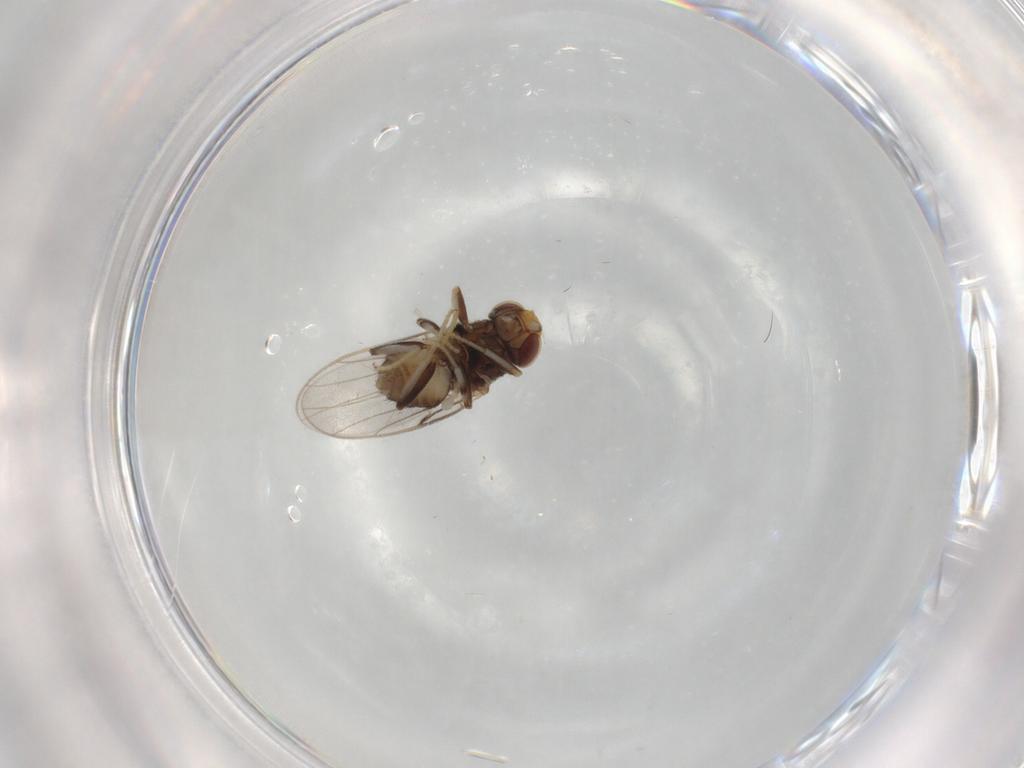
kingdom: Animalia
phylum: Arthropoda
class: Insecta
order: Diptera
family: Chloropidae
